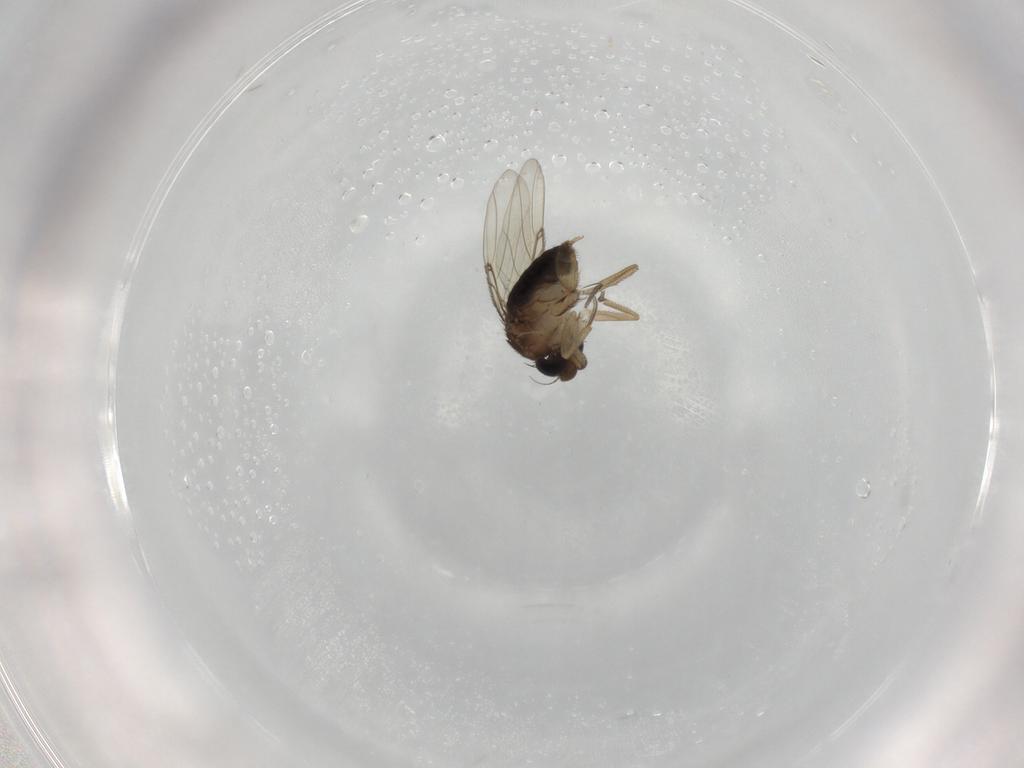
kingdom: Animalia
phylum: Arthropoda
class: Insecta
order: Diptera
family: Phoridae
